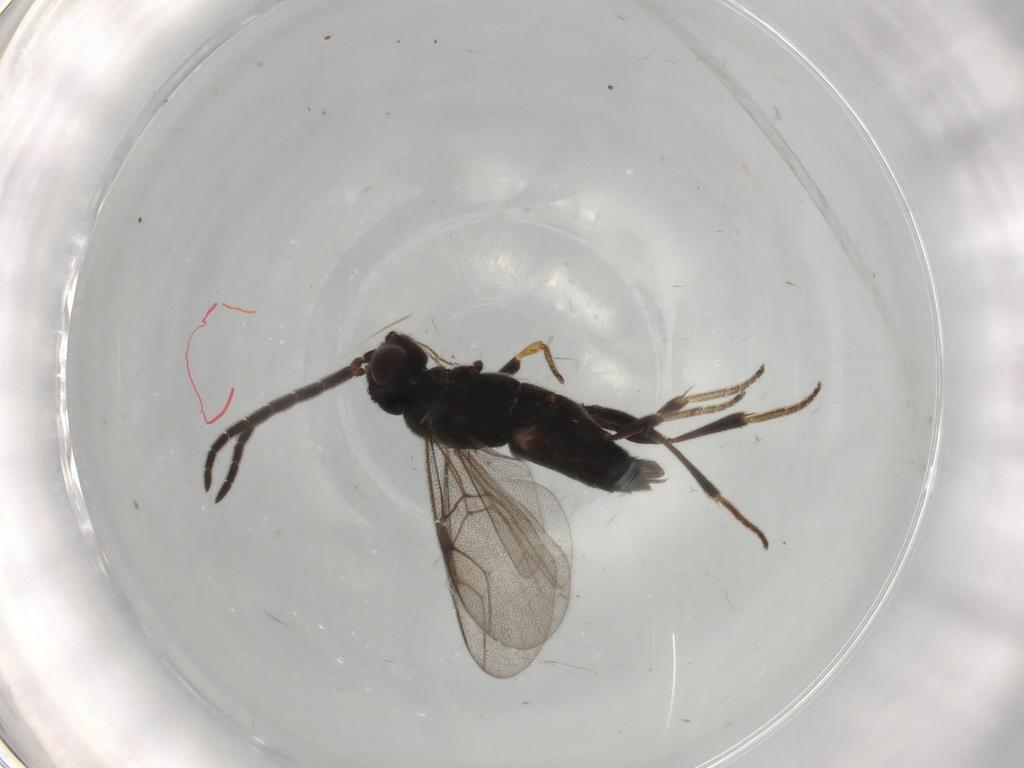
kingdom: Animalia
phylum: Arthropoda
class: Insecta
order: Hymenoptera
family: Dryinidae
